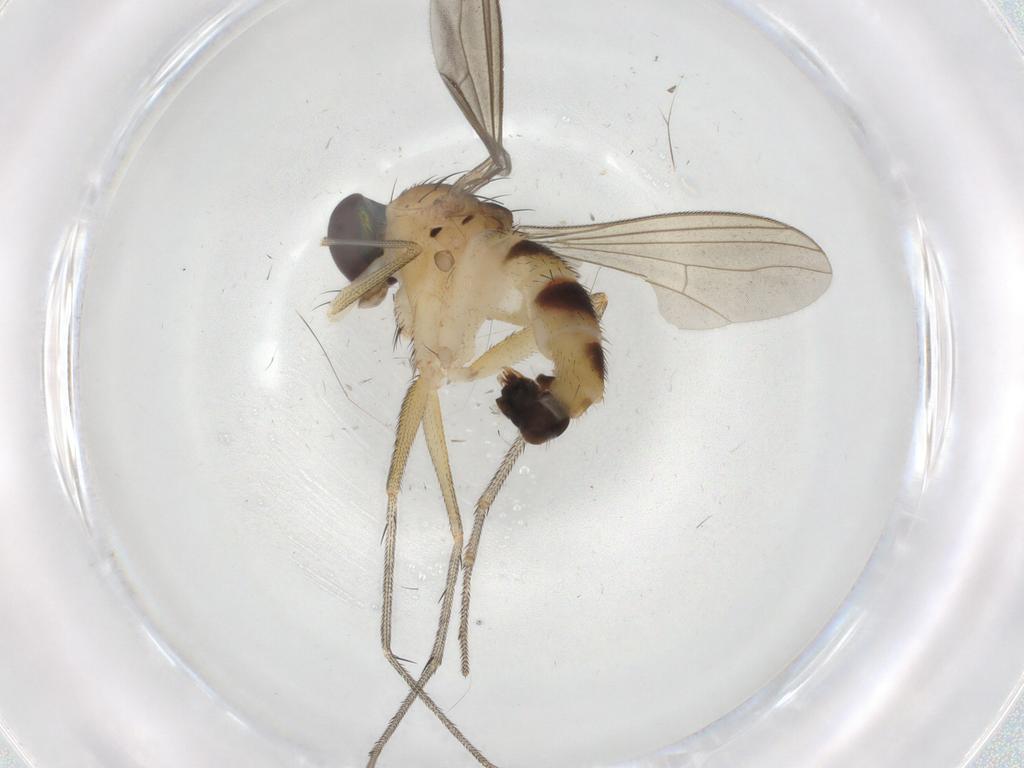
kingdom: Animalia
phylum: Arthropoda
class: Insecta
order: Diptera
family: Cecidomyiidae
